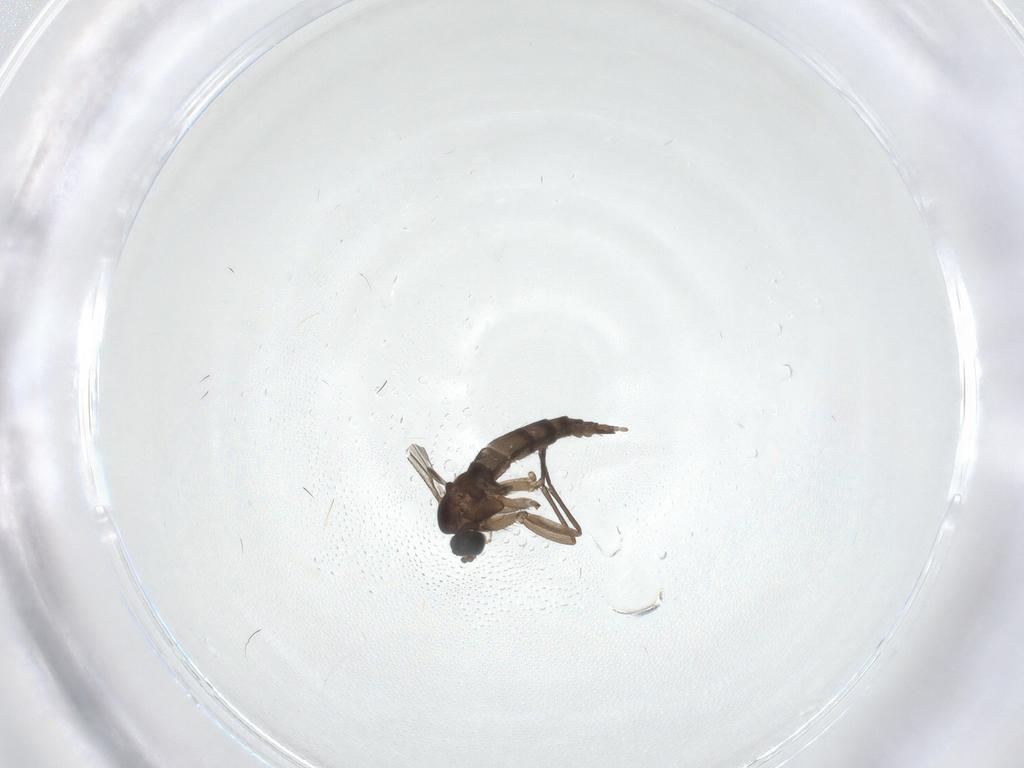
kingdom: Animalia
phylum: Arthropoda
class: Insecta
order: Diptera
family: Sciaridae
